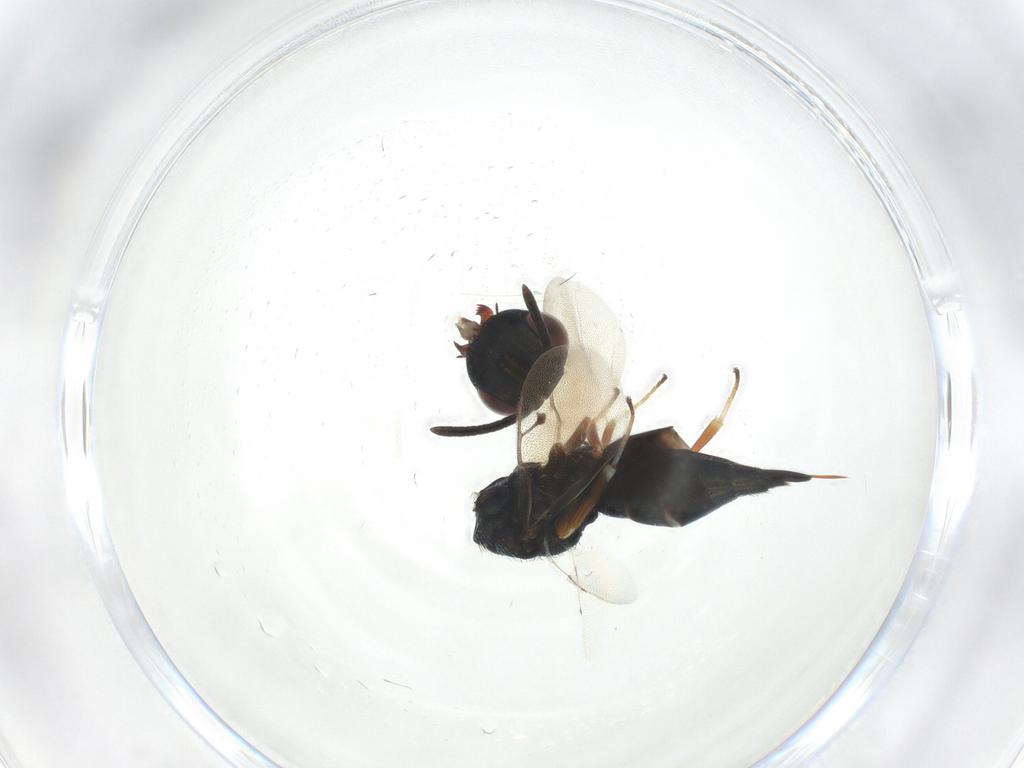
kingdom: Animalia
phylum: Arthropoda
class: Insecta
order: Hymenoptera
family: Pteromalidae
